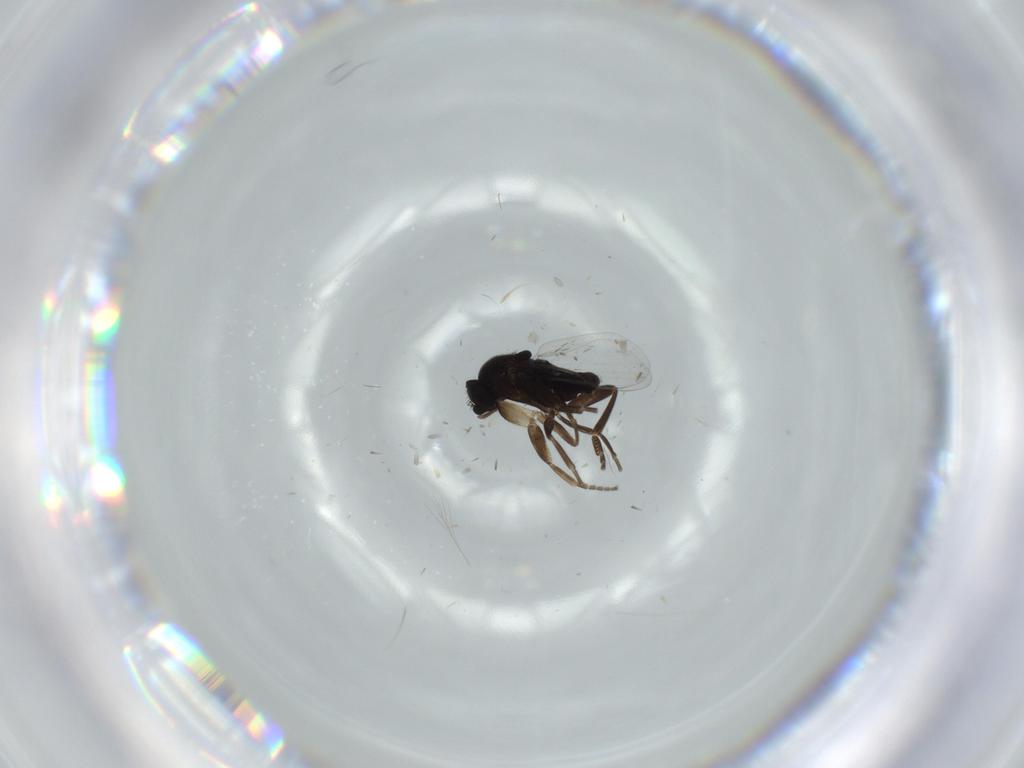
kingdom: Animalia
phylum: Arthropoda
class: Insecta
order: Diptera
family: Phoridae
